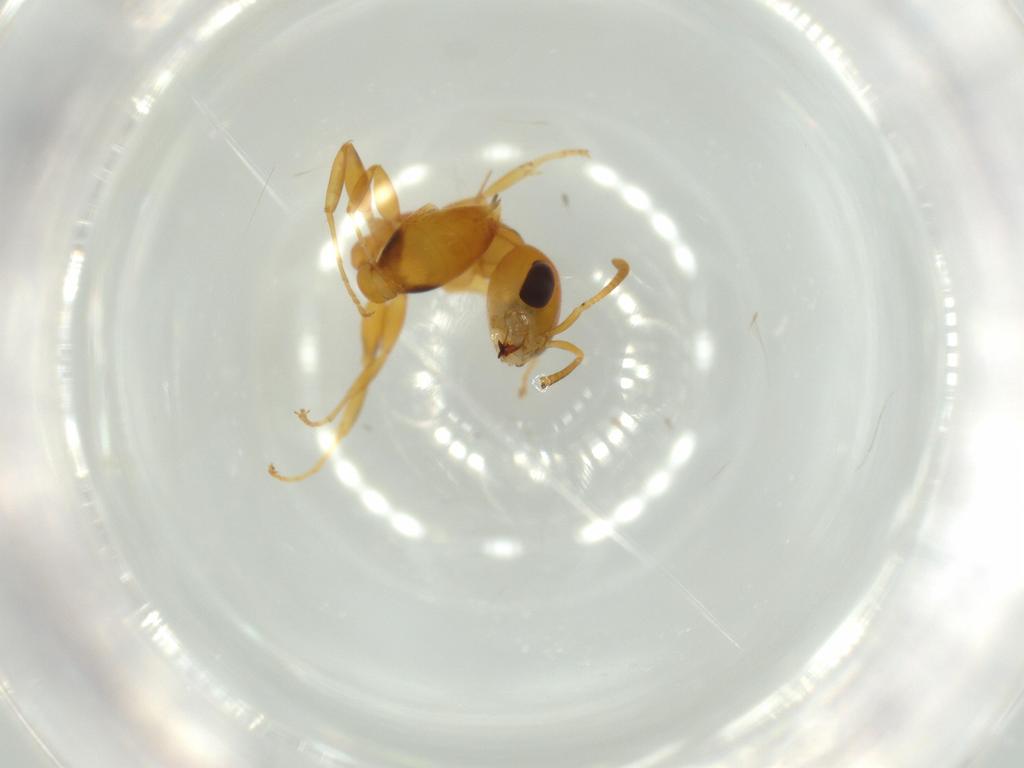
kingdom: Animalia
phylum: Arthropoda
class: Insecta
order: Hymenoptera
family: Formicidae
